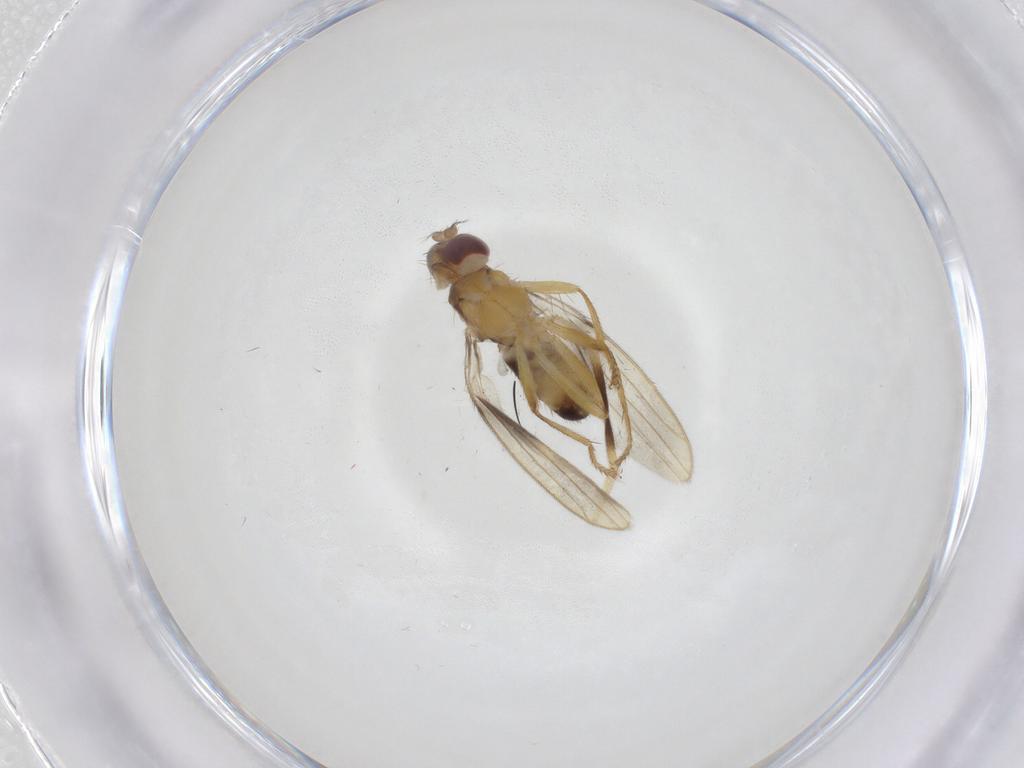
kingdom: Animalia
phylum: Arthropoda
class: Insecta
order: Diptera
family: Periscelididae
